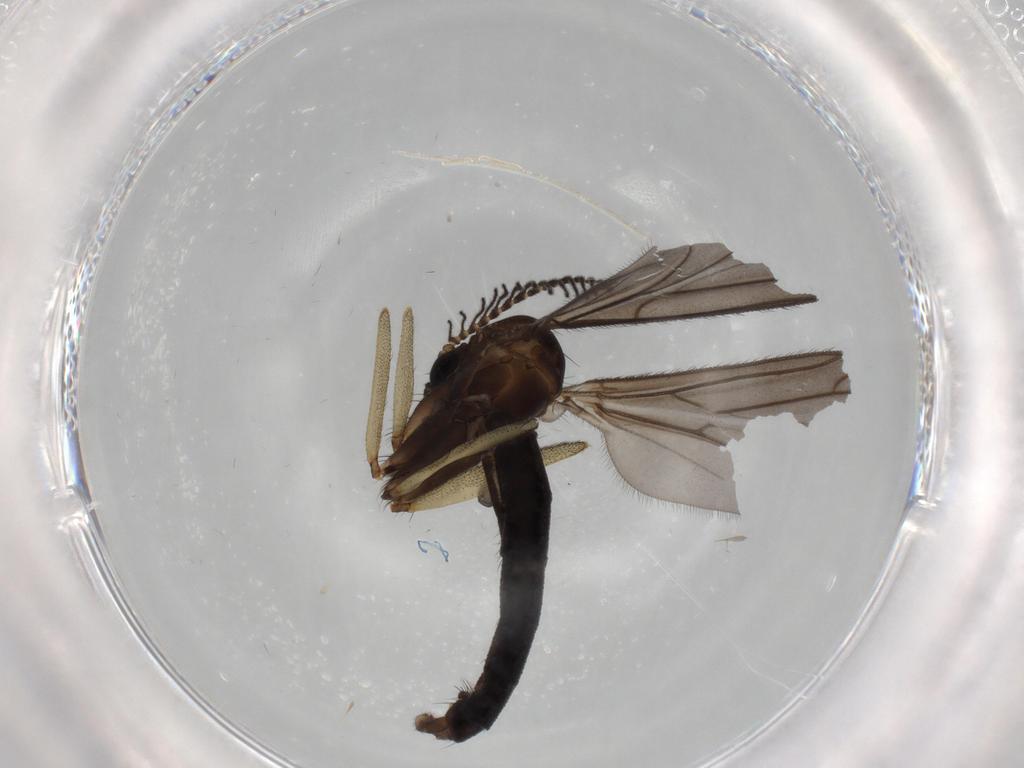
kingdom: Animalia
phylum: Arthropoda
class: Insecta
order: Diptera
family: Ditomyiidae
